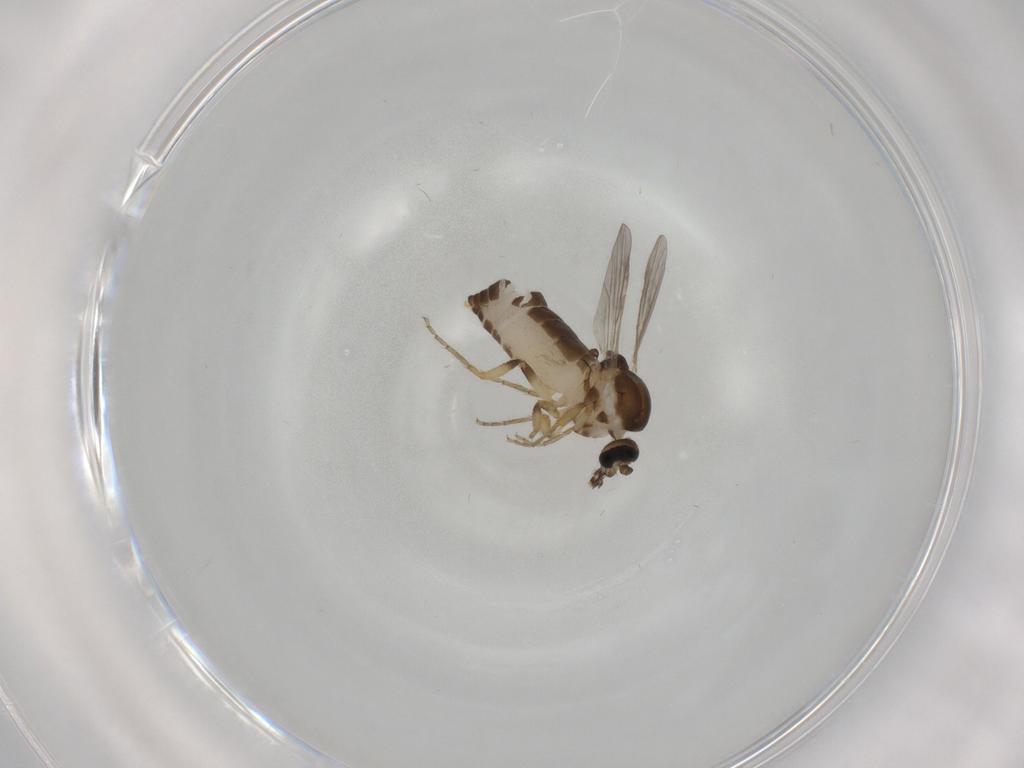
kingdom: Animalia
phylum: Arthropoda
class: Insecta
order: Diptera
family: Ceratopogonidae
